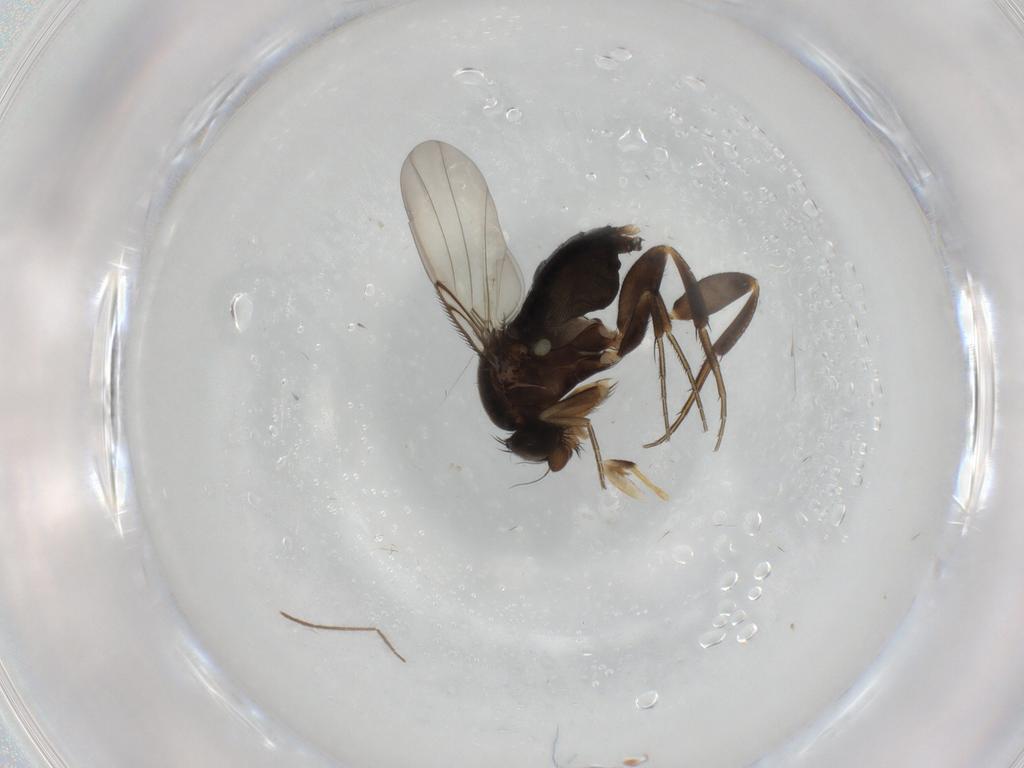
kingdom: Animalia
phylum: Arthropoda
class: Insecta
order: Diptera
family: Phoridae
